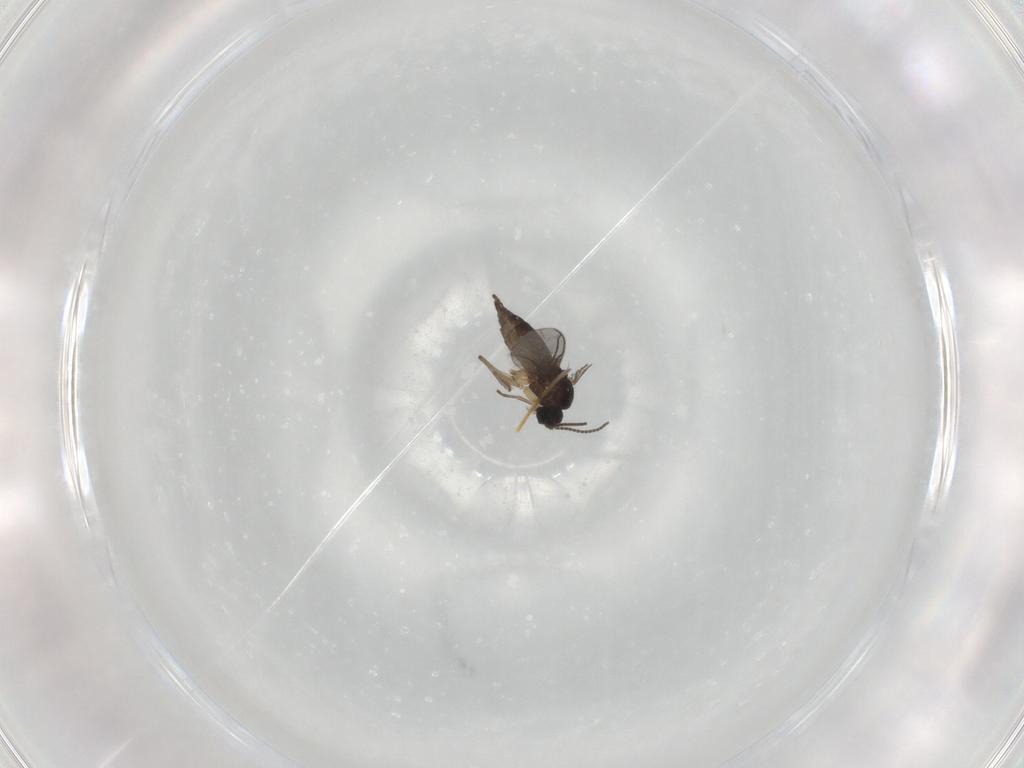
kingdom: Animalia
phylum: Arthropoda
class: Insecta
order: Diptera
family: Sciaridae
